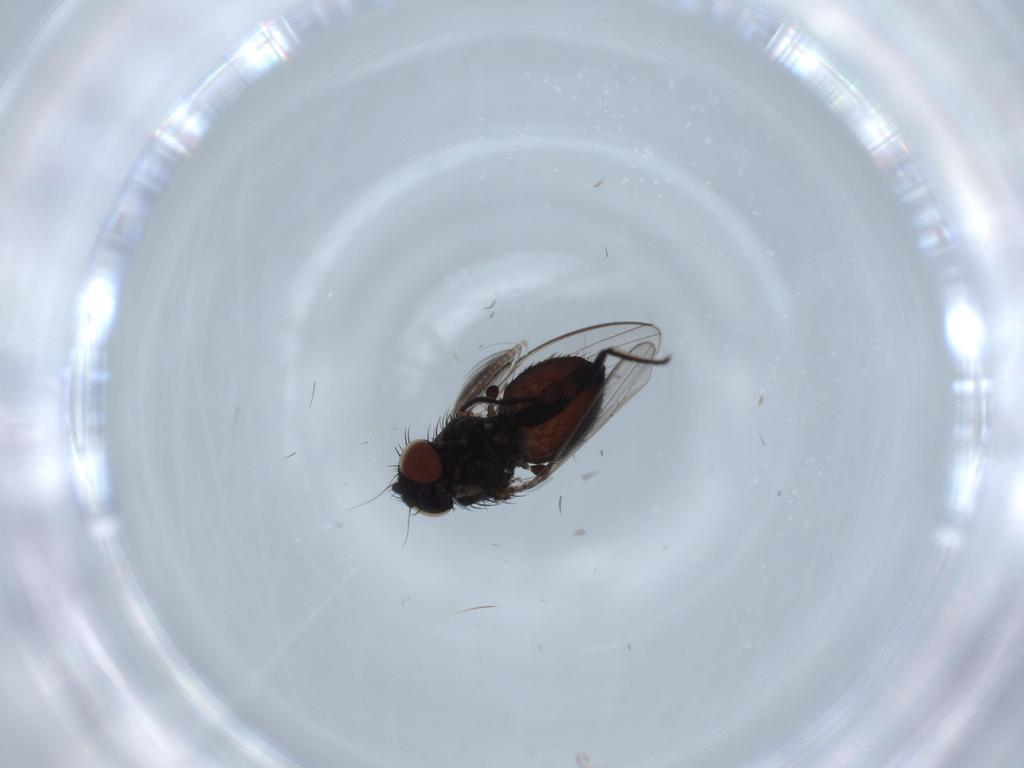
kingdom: Animalia
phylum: Arthropoda
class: Insecta
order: Diptera
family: Milichiidae
